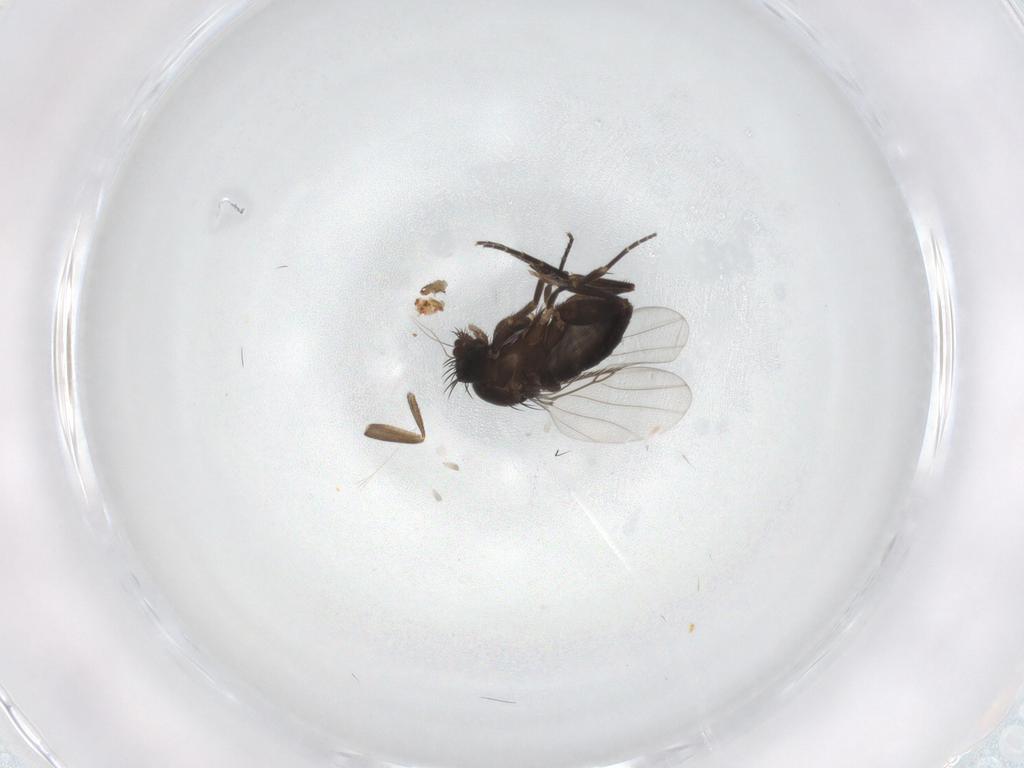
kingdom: Animalia
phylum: Arthropoda
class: Insecta
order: Diptera
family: Phoridae
